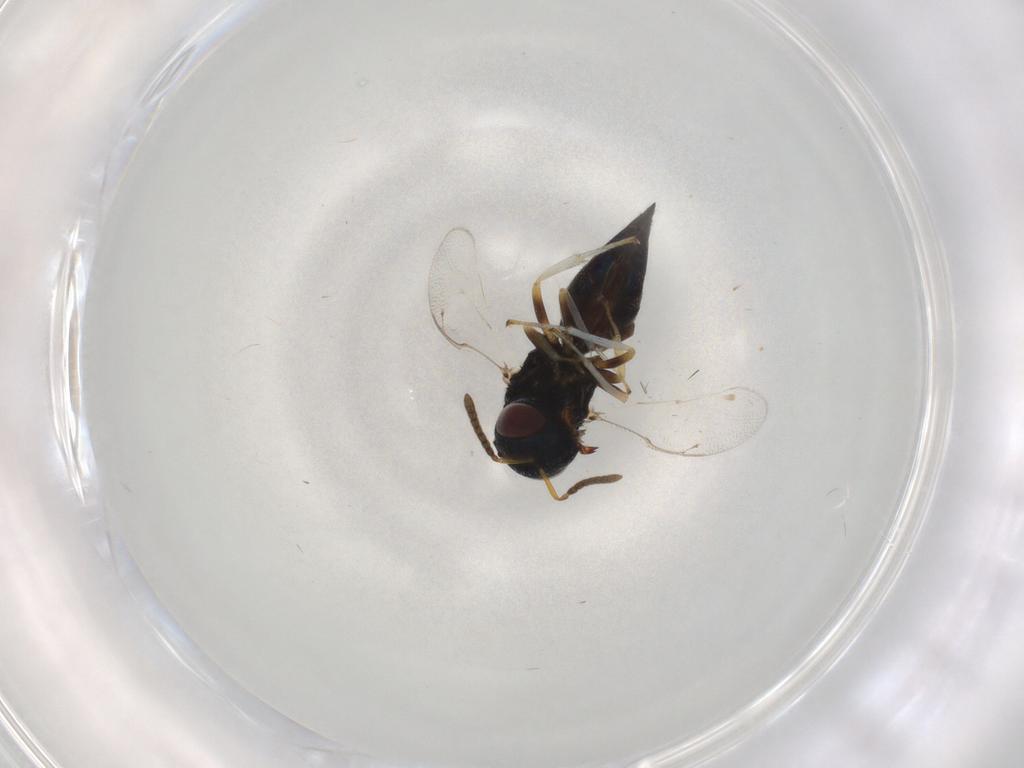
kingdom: Animalia
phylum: Arthropoda
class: Insecta
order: Hymenoptera
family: Pteromalidae
